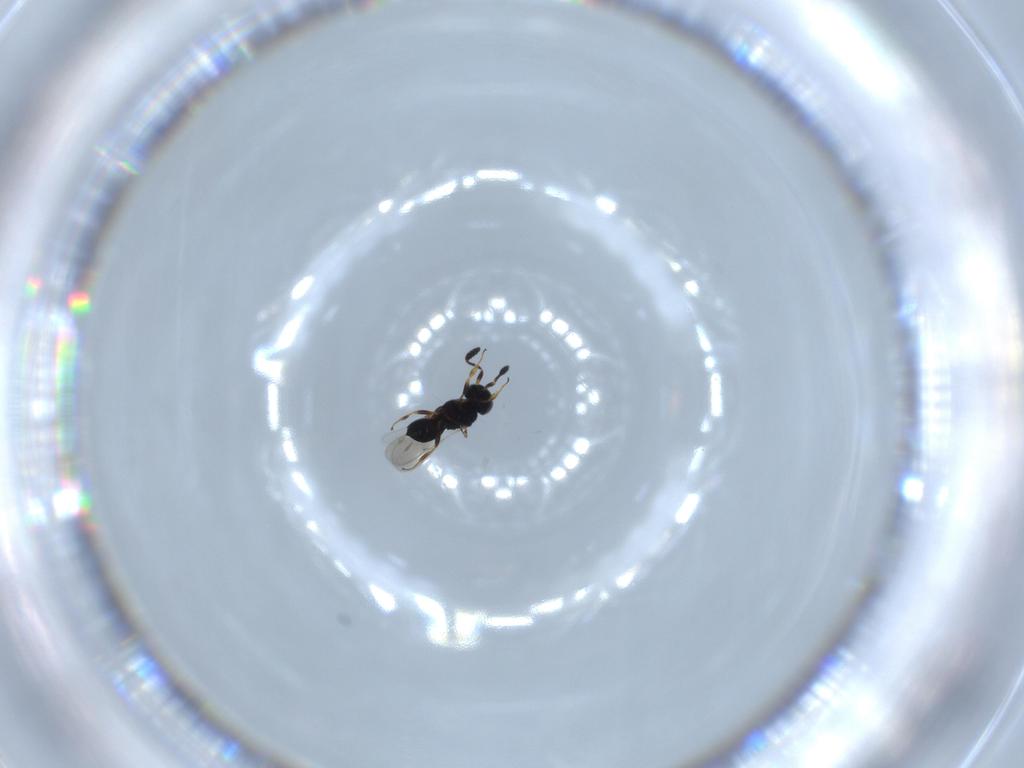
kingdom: Animalia
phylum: Arthropoda
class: Insecta
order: Hymenoptera
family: Scelionidae
